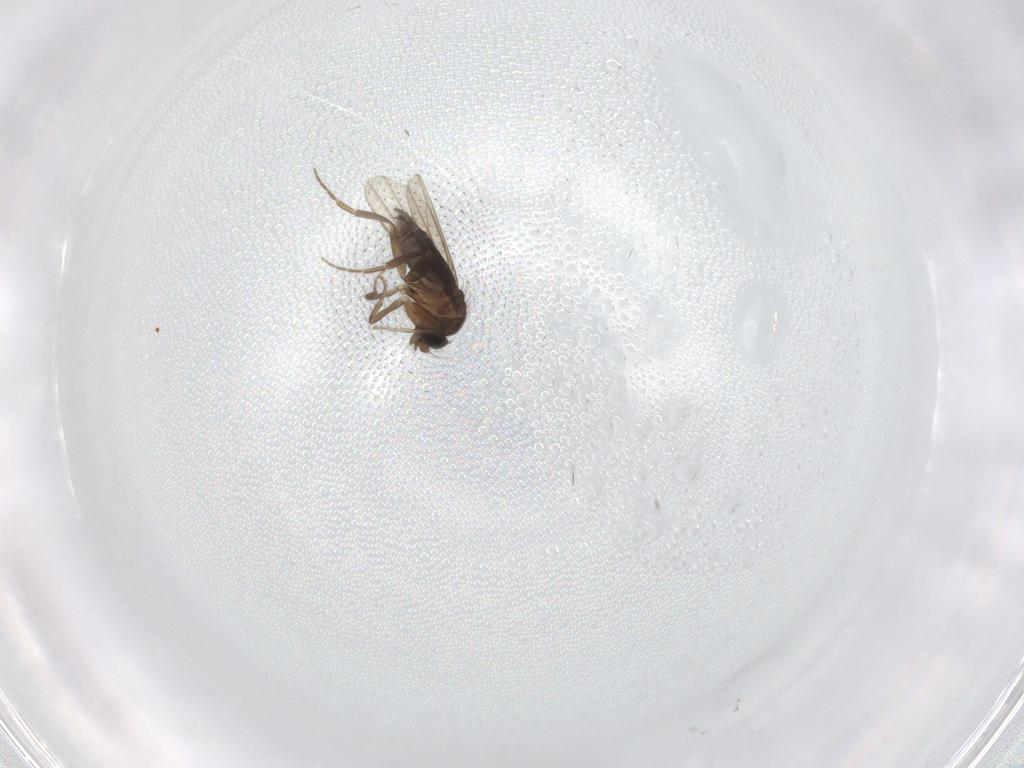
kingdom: Animalia
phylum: Arthropoda
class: Insecta
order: Diptera
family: Phoridae
